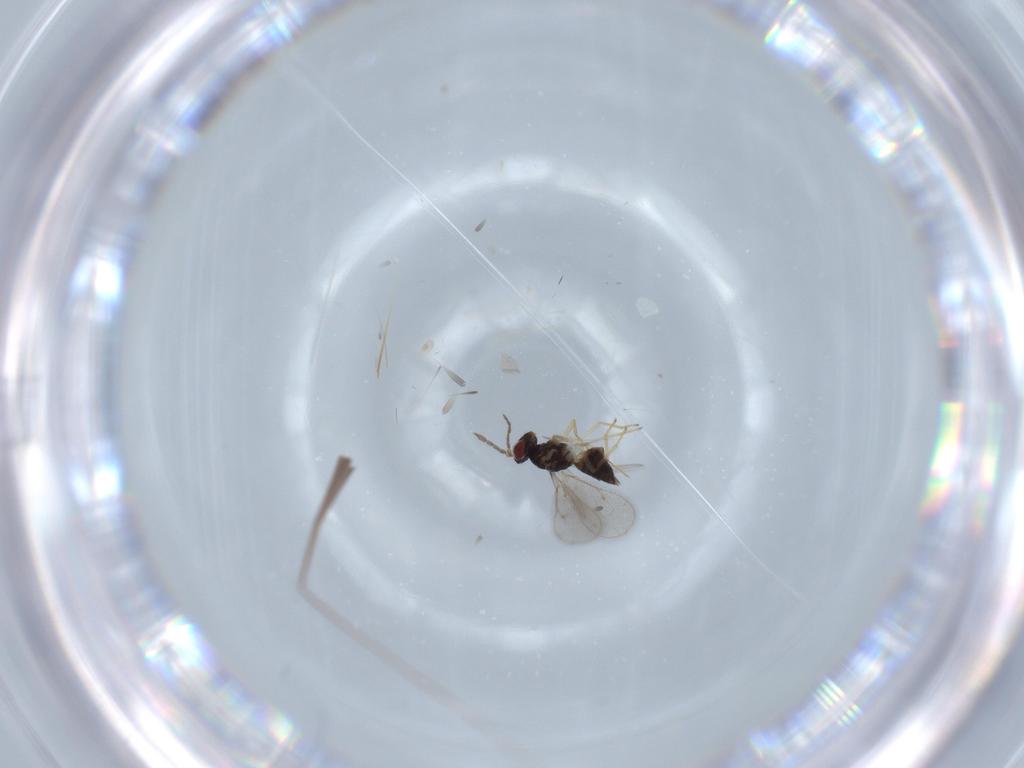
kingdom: Animalia
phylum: Arthropoda
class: Insecta
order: Hymenoptera
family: Eulophidae
